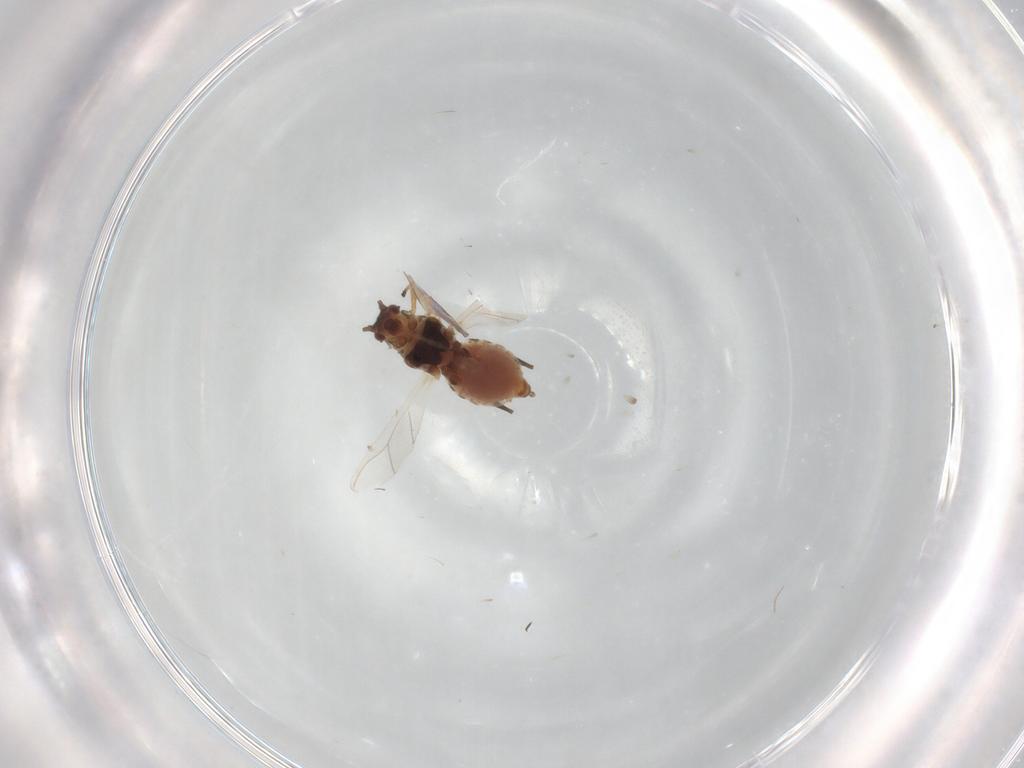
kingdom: Animalia
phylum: Arthropoda
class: Insecta
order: Hemiptera
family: Aphididae
